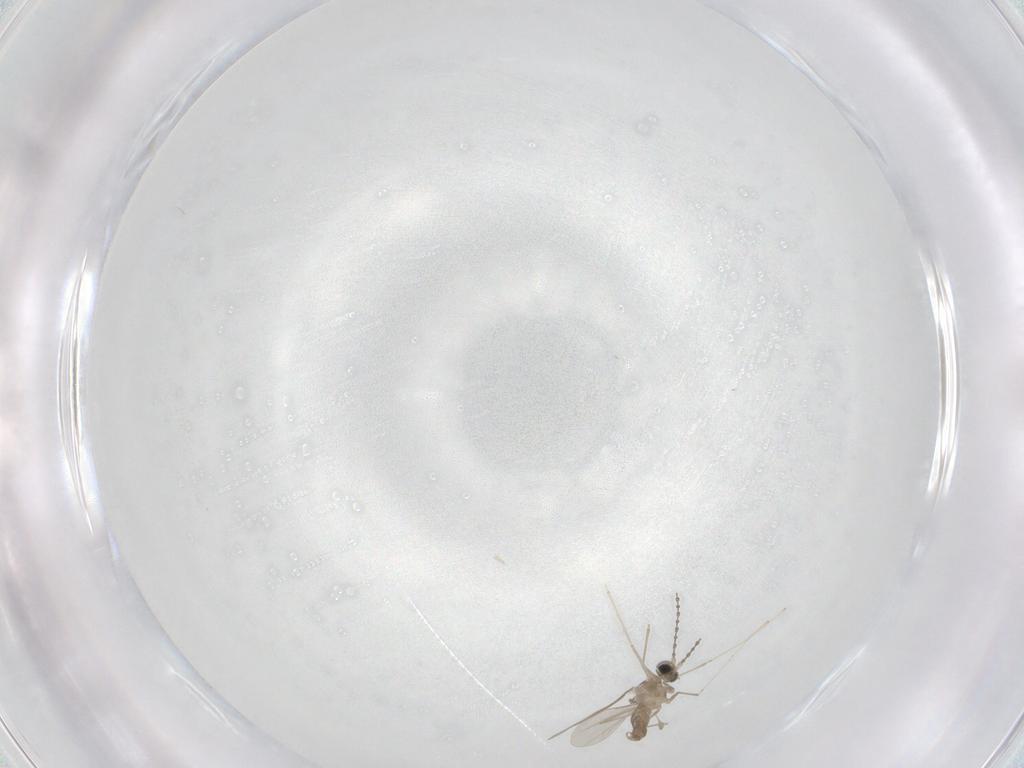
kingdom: Animalia
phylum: Arthropoda
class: Insecta
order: Diptera
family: Cecidomyiidae
